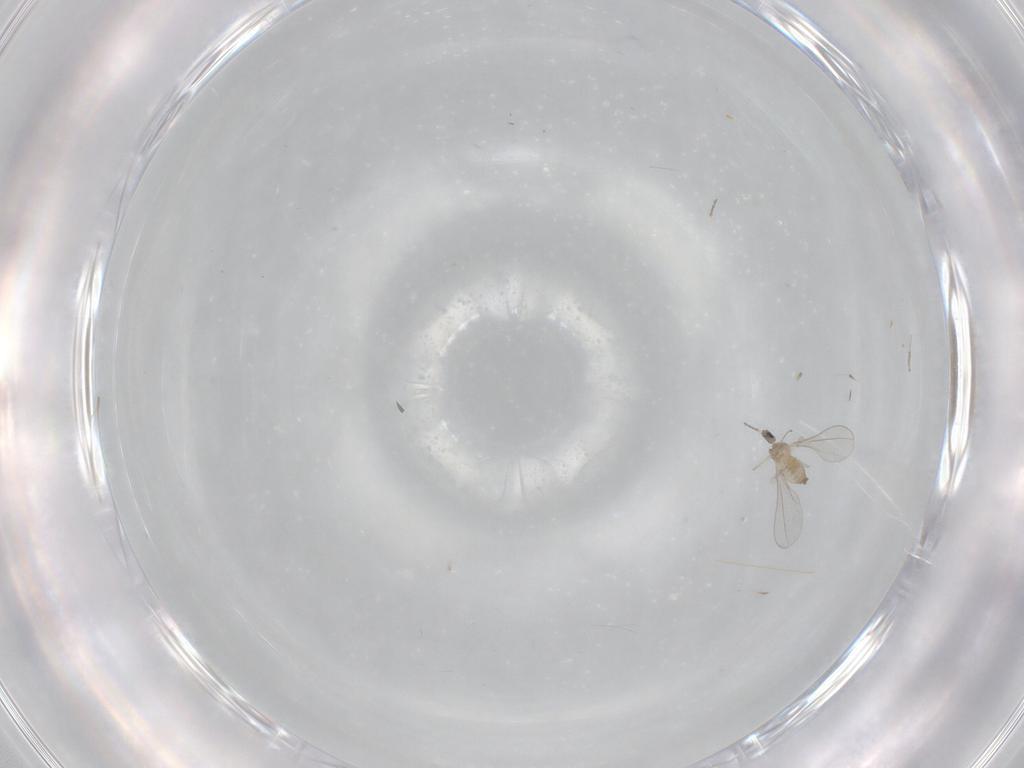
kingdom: Animalia
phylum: Arthropoda
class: Insecta
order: Diptera
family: Cecidomyiidae
